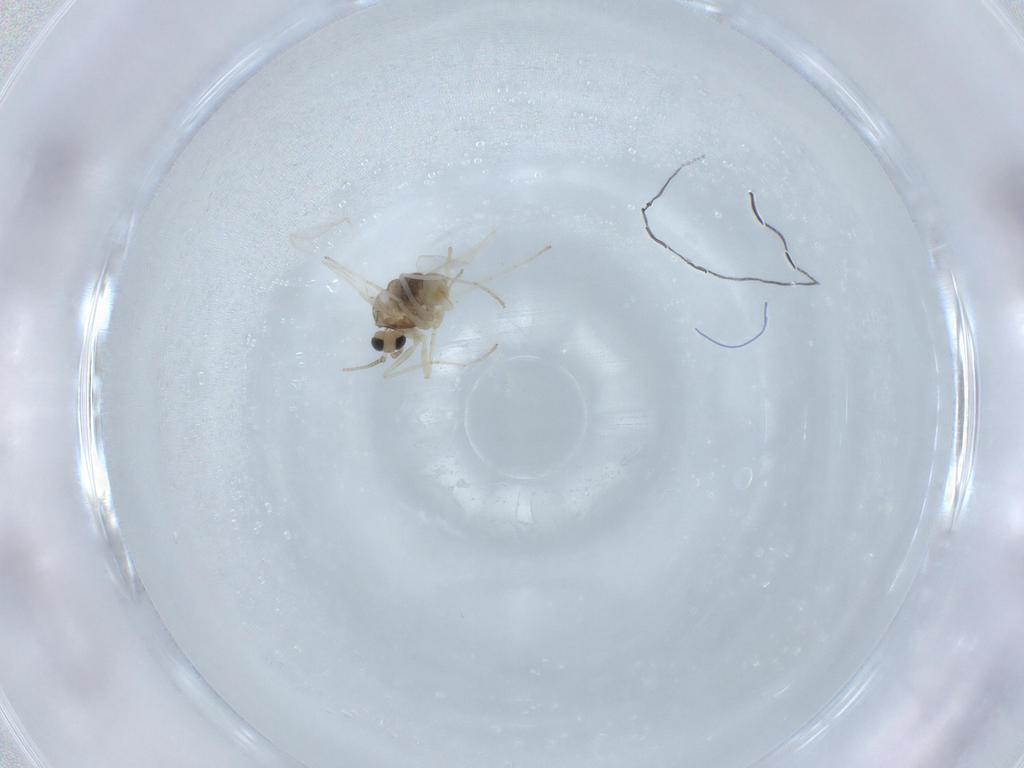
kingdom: Animalia
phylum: Arthropoda
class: Insecta
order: Diptera
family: Cecidomyiidae
